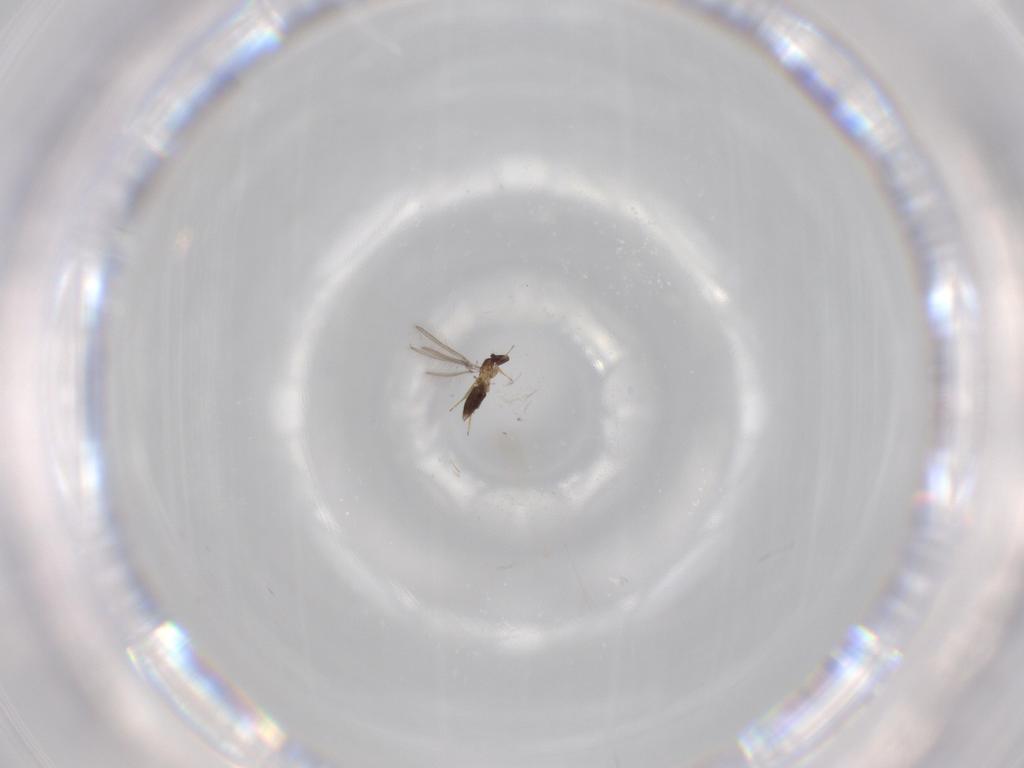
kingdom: Animalia
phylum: Arthropoda
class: Insecta
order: Hymenoptera
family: Mymaridae
